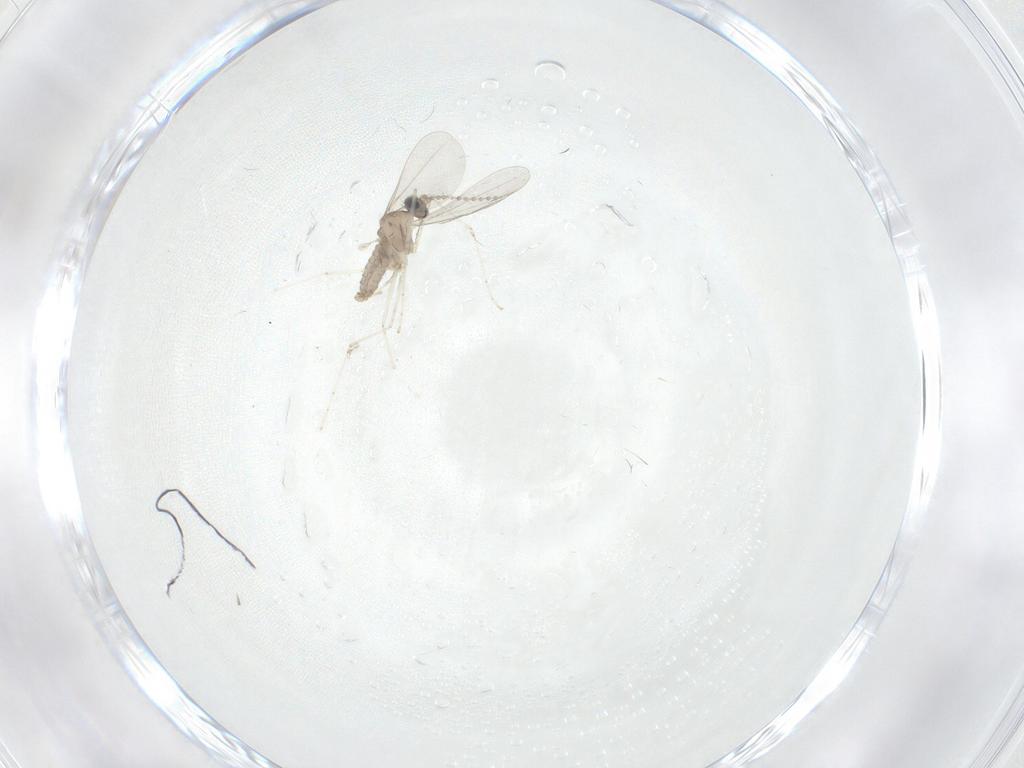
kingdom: Animalia
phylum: Arthropoda
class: Insecta
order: Diptera
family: Cecidomyiidae
